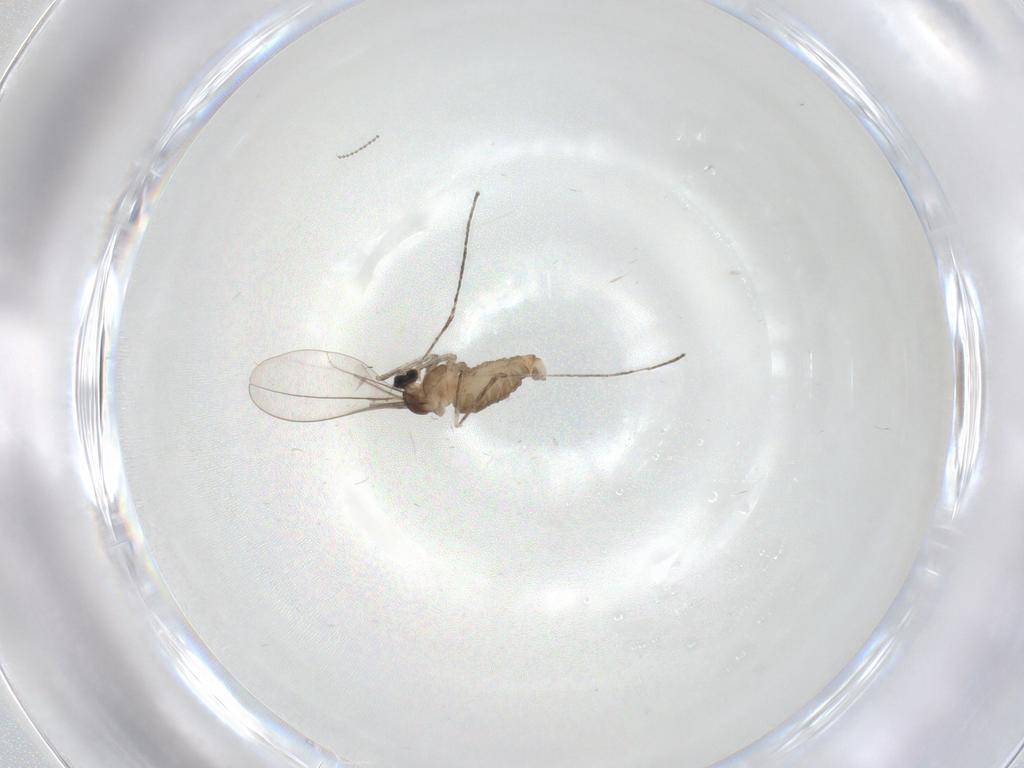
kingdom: Animalia
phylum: Arthropoda
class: Insecta
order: Diptera
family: Cecidomyiidae
